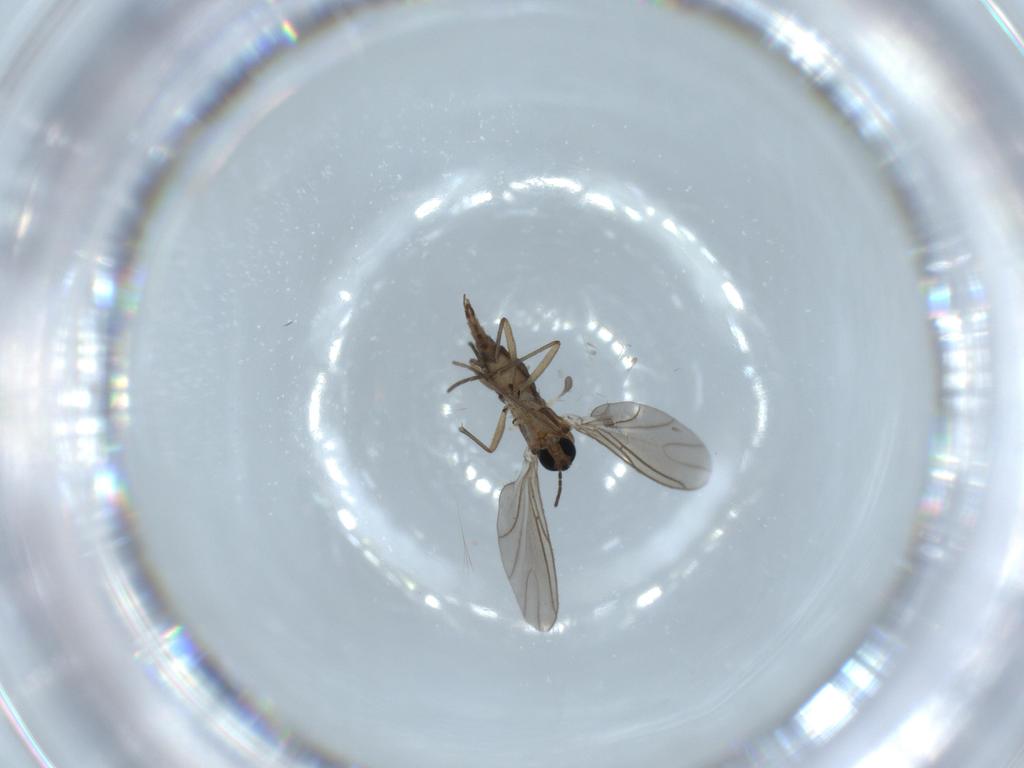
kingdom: Animalia
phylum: Arthropoda
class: Insecta
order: Diptera
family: Sciaridae
